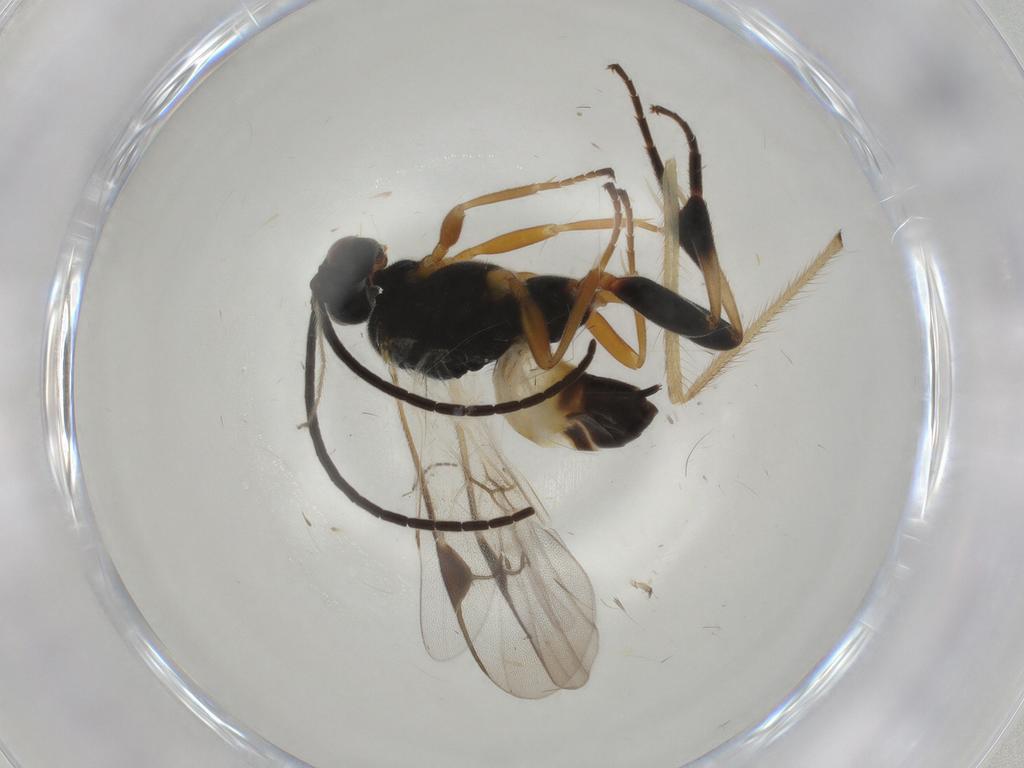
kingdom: Animalia
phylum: Arthropoda
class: Insecta
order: Hymenoptera
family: Braconidae
